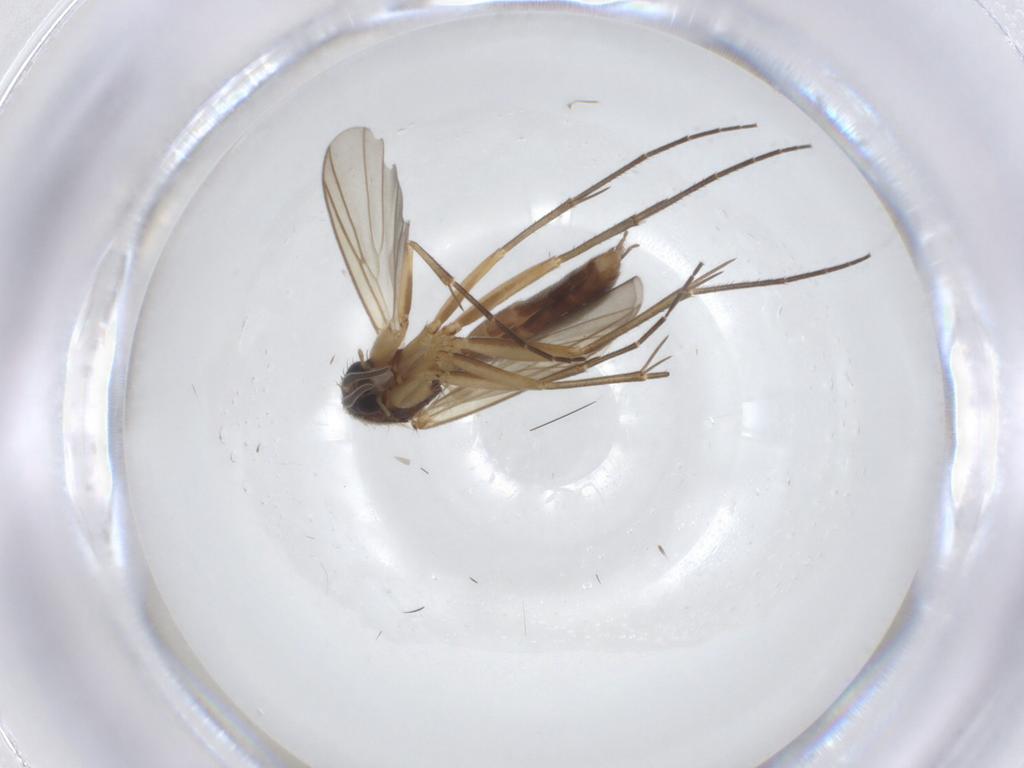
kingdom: Animalia
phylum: Arthropoda
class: Insecta
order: Diptera
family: Mycetophilidae
